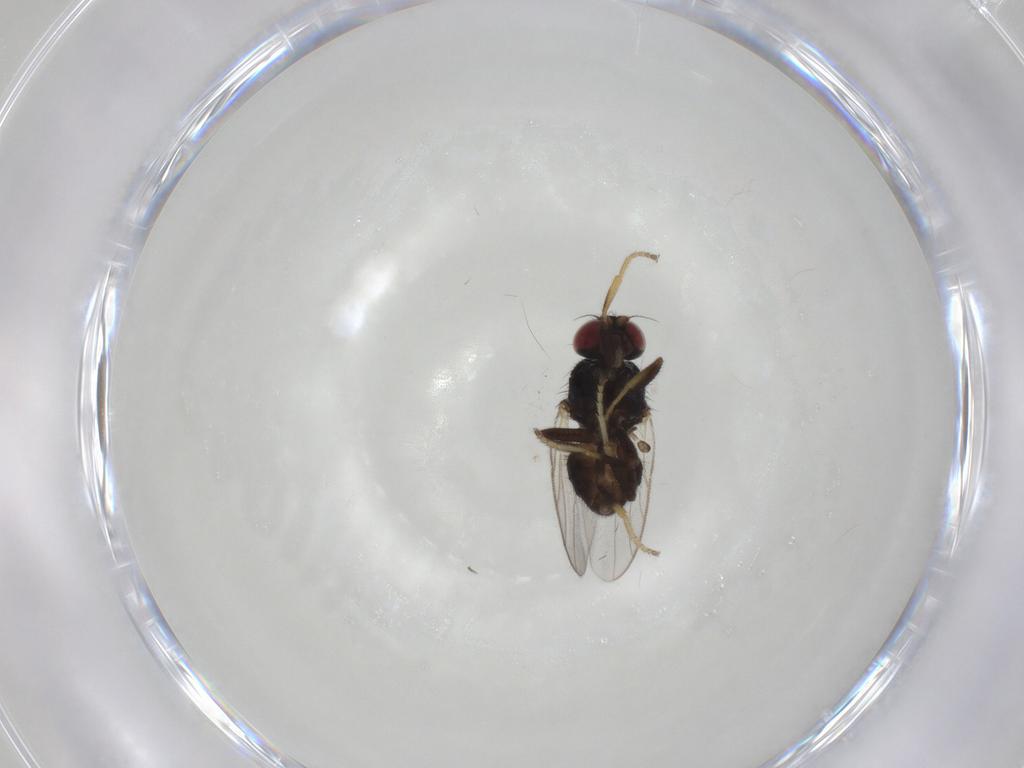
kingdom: Animalia
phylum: Arthropoda
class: Insecta
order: Diptera
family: Chloropidae
